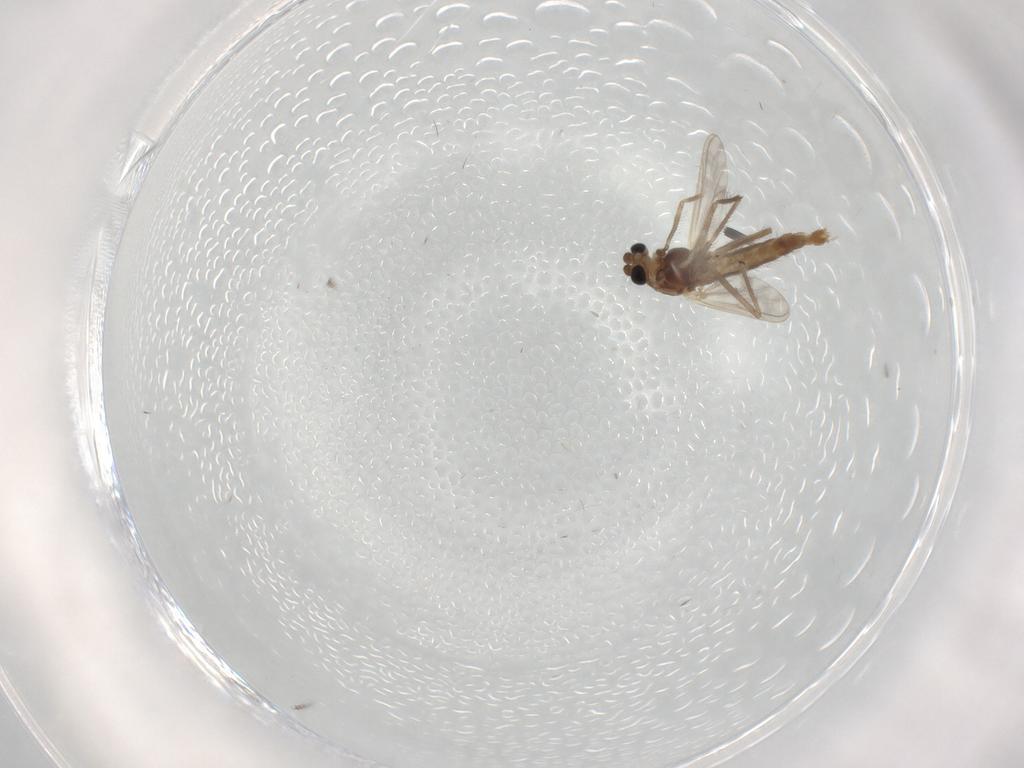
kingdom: Animalia
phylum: Arthropoda
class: Insecta
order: Diptera
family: Chironomidae
